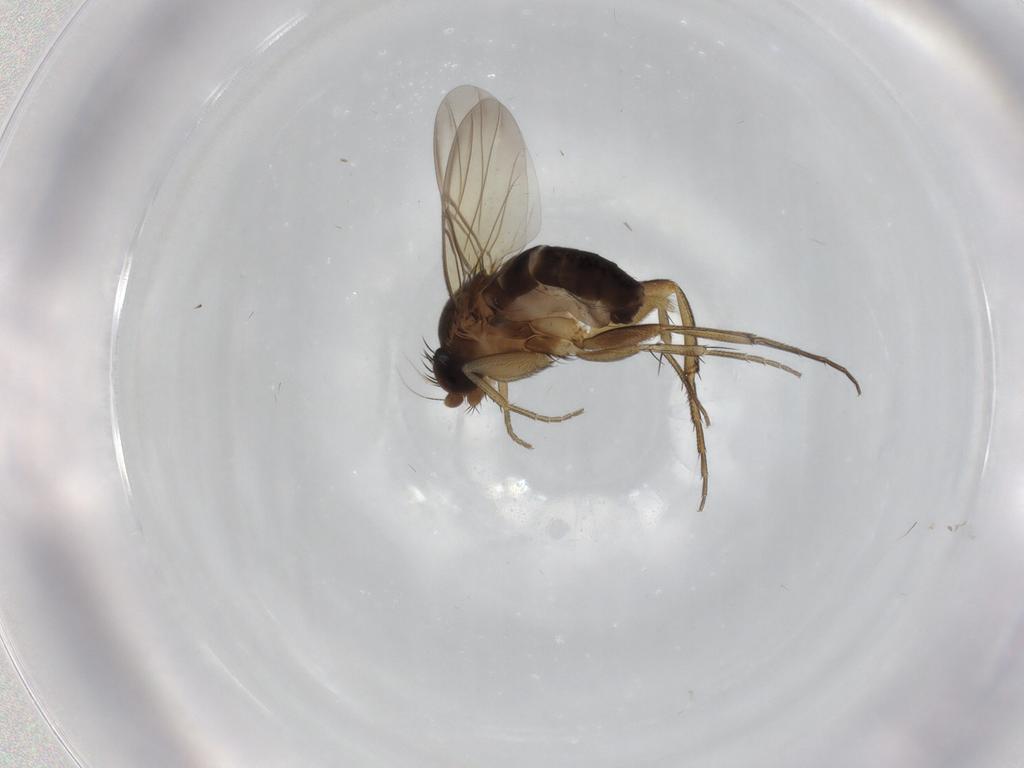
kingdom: Animalia
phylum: Arthropoda
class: Insecta
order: Diptera
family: Phoridae
